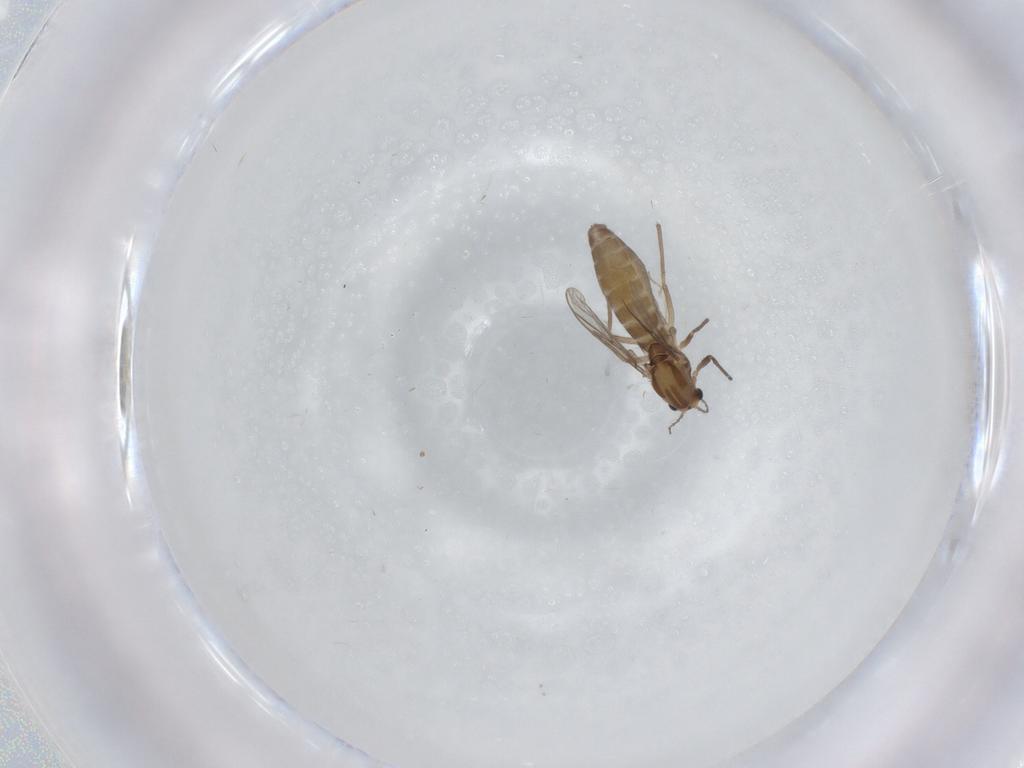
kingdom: Animalia
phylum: Arthropoda
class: Insecta
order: Diptera
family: Chironomidae
